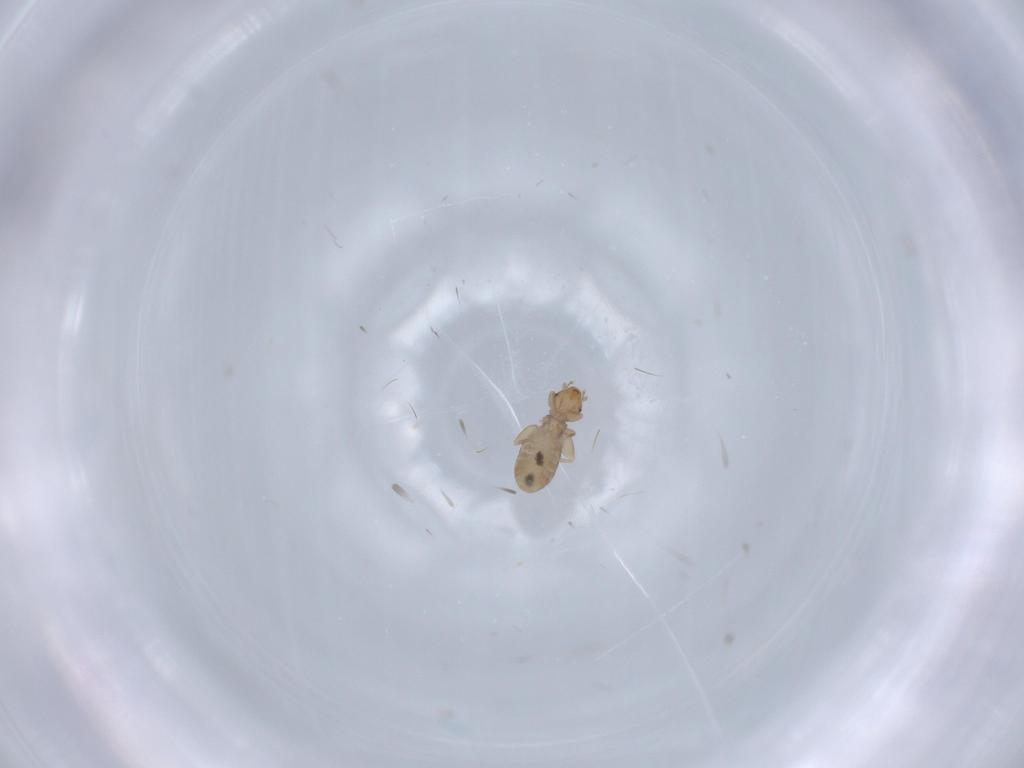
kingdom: Animalia
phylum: Arthropoda
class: Insecta
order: Psocodea
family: Liposcelididae
